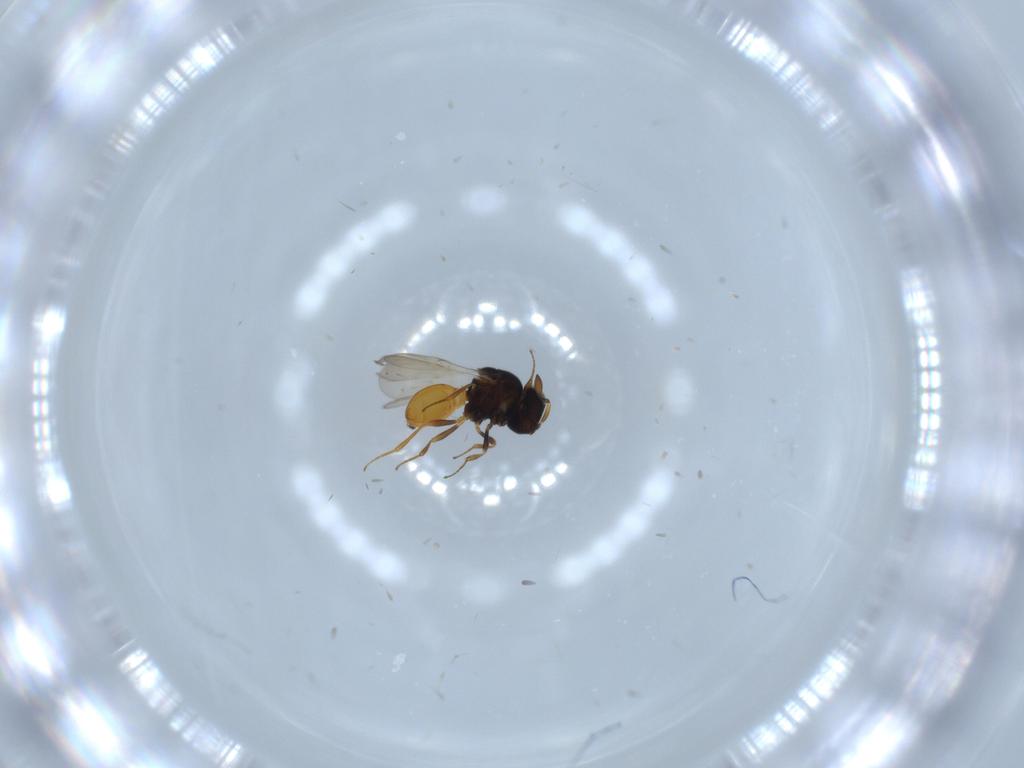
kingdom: Animalia
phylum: Arthropoda
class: Insecta
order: Hymenoptera
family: Scelionidae
